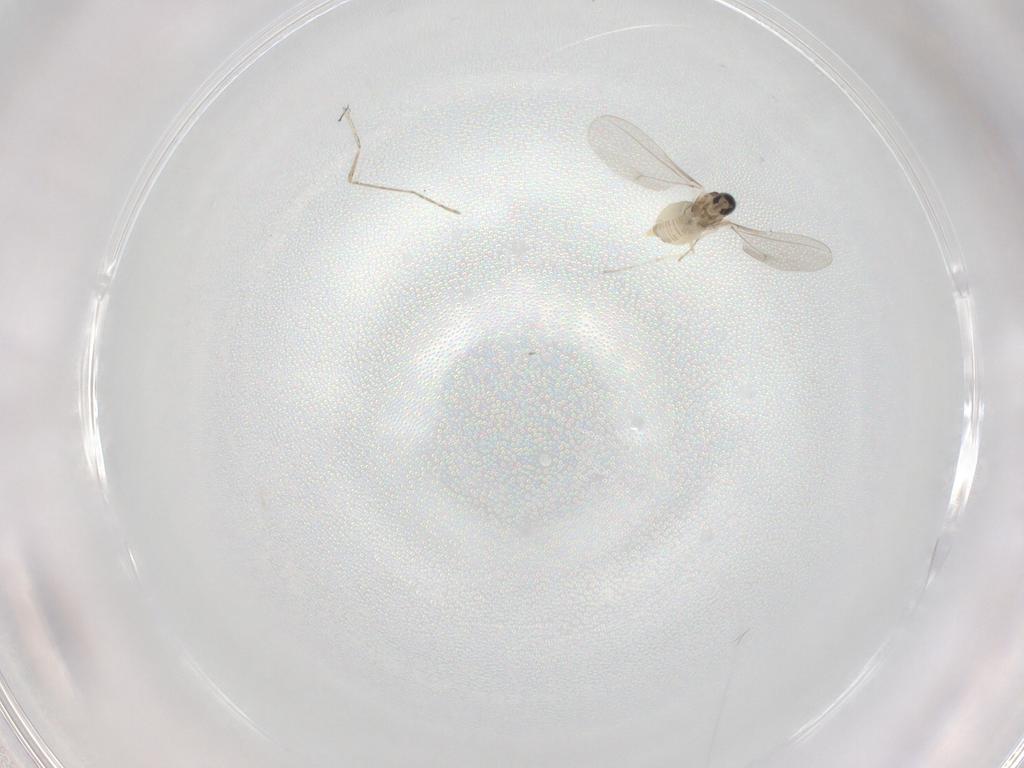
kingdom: Animalia
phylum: Arthropoda
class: Insecta
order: Diptera
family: Cecidomyiidae
